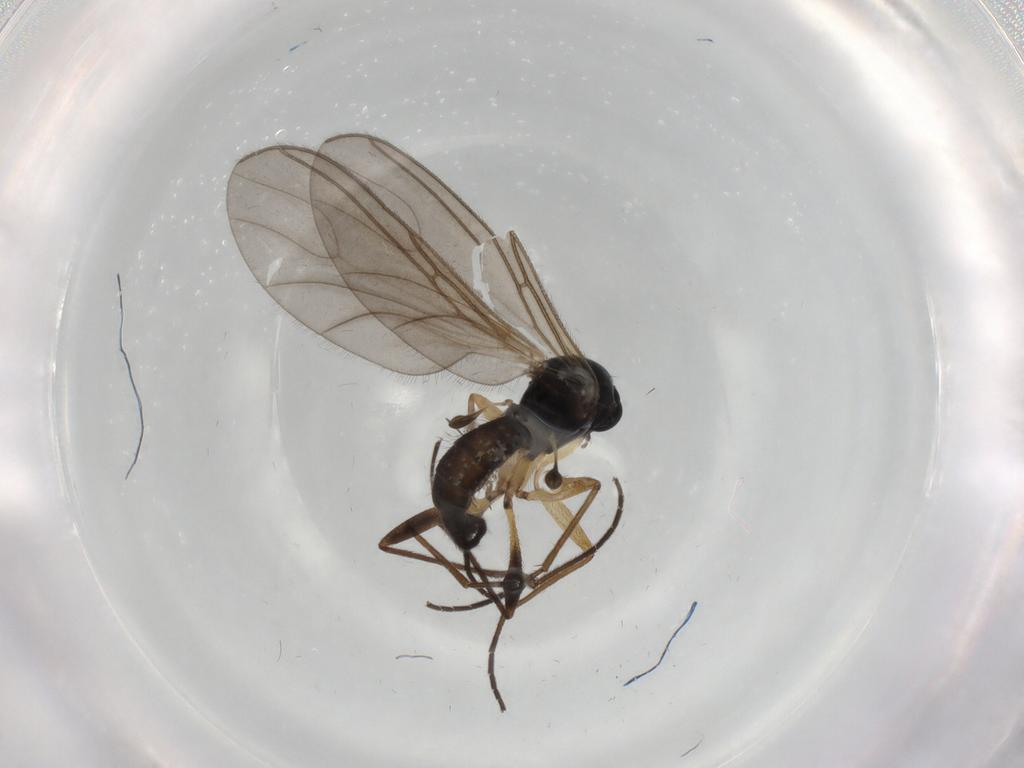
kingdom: Animalia
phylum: Arthropoda
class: Insecta
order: Diptera
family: Sciaridae
